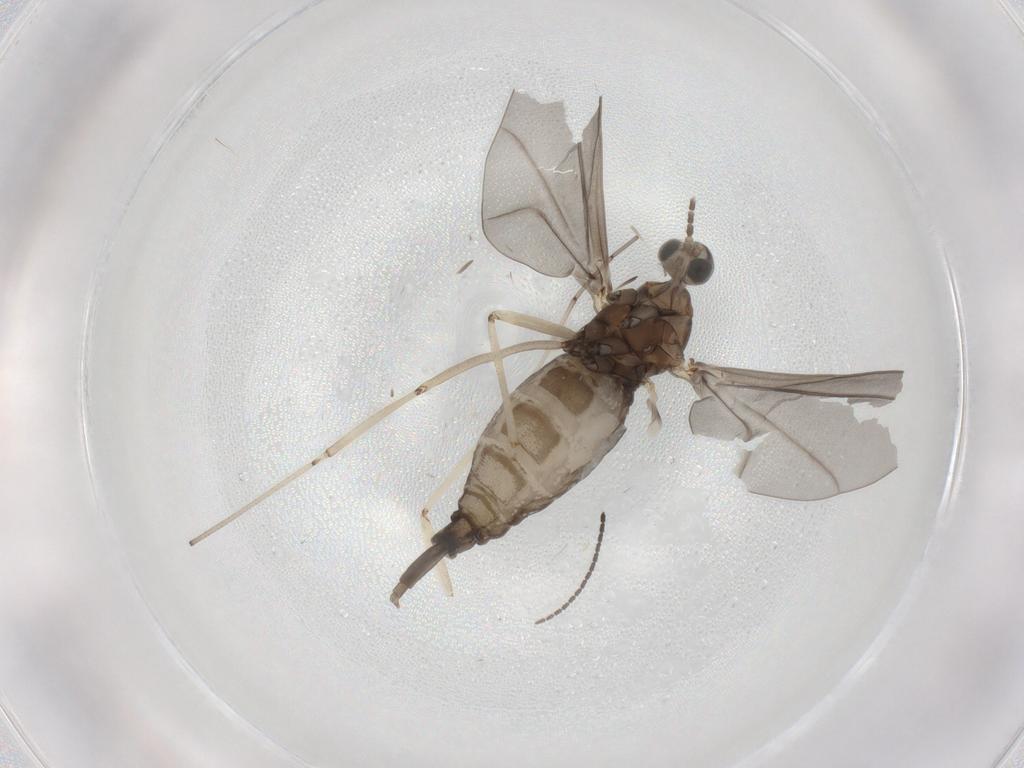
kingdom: Animalia
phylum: Arthropoda
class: Insecta
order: Diptera
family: Cecidomyiidae
